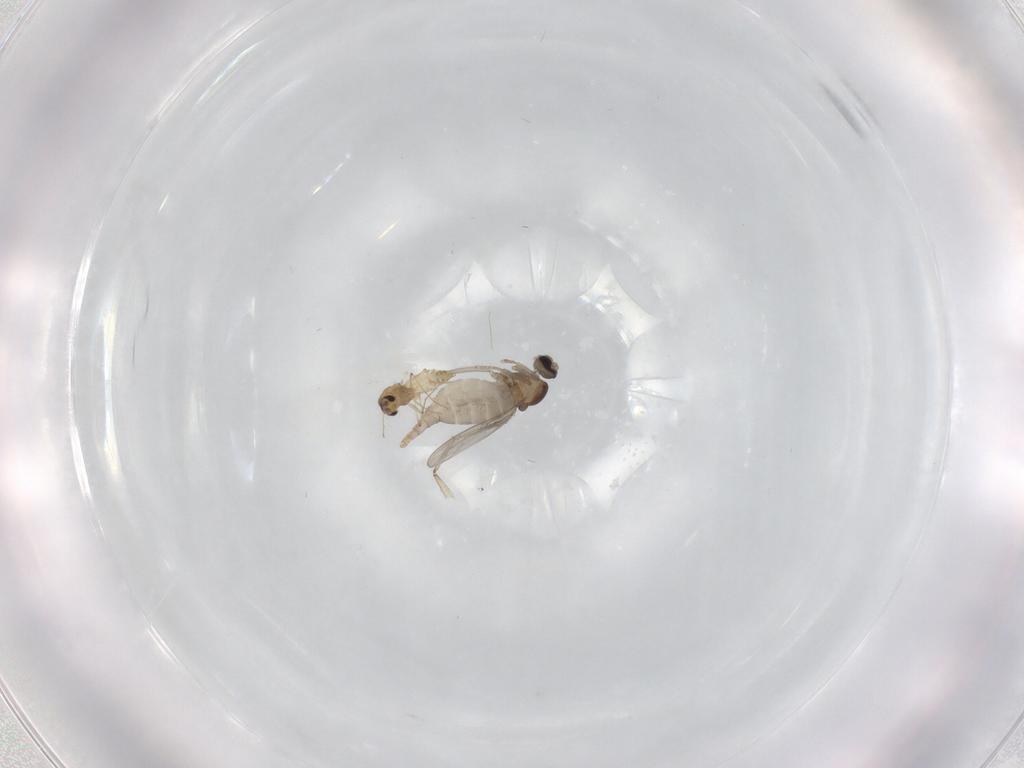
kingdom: Animalia
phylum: Arthropoda
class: Insecta
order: Diptera
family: Chironomidae
